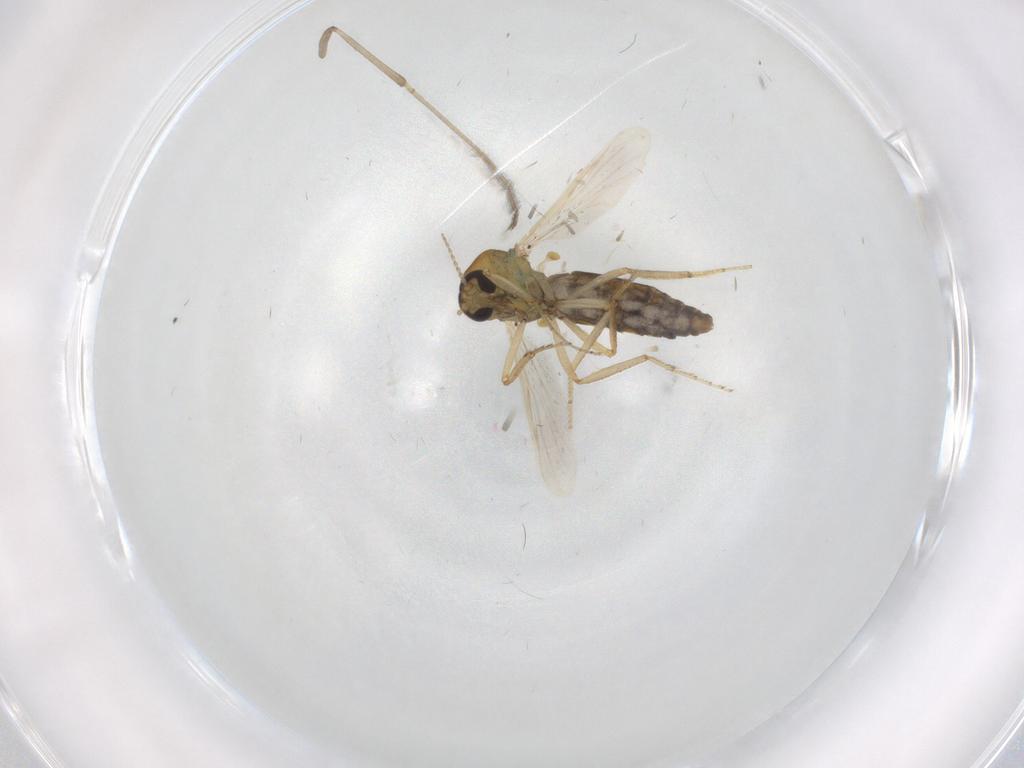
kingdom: Animalia
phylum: Arthropoda
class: Insecta
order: Diptera
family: Ceratopogonidae
